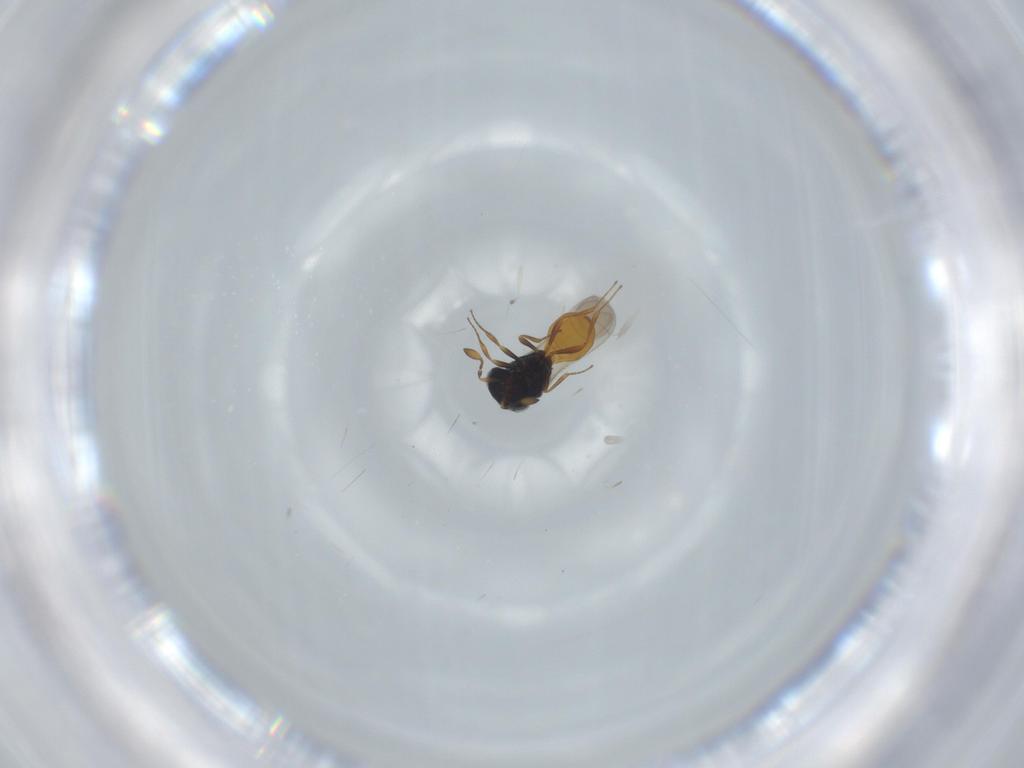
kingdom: Animalia
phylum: Arthropoda
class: Insecta
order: Hymenoptera
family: Scelionidae
